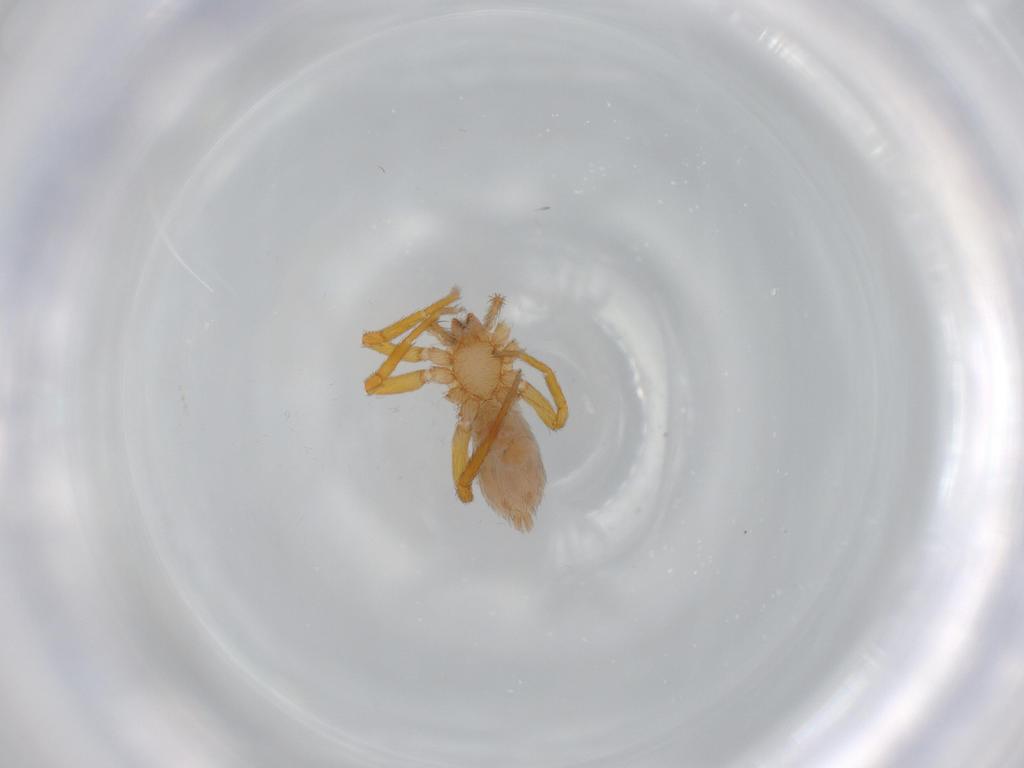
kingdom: Animalia
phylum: Arthropoda
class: Arachnida
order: Araneae
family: Oonopidae
